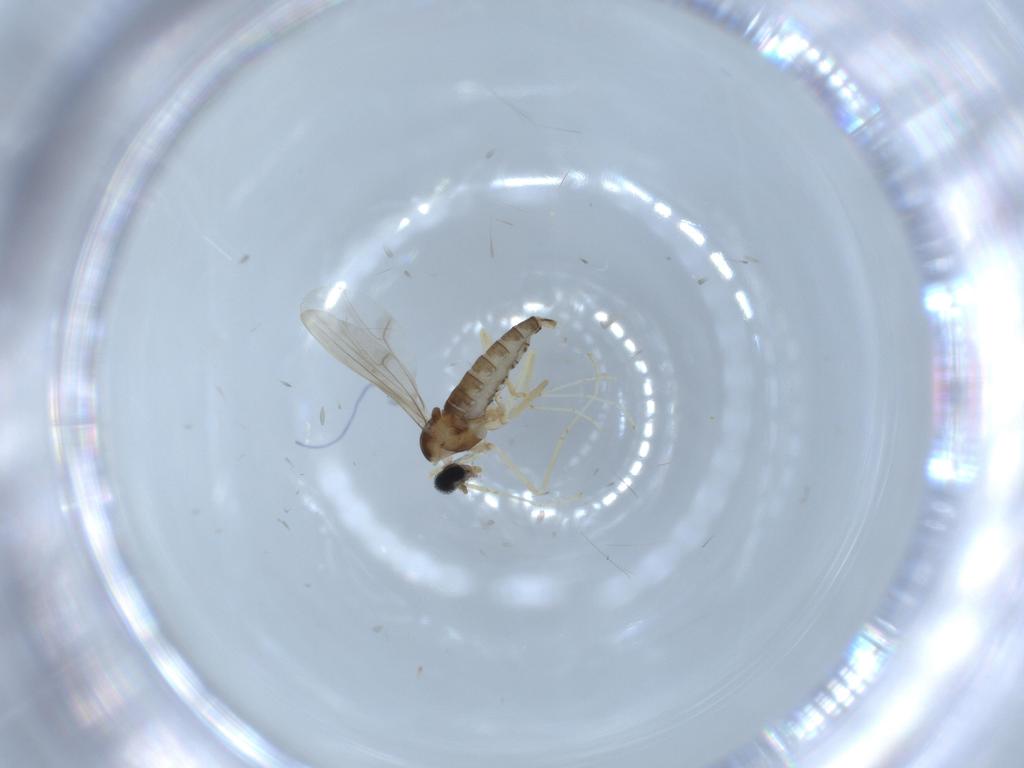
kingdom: Animalia
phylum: Arthropoda
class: Insecta
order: Diptera
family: Cecidomyiidae
